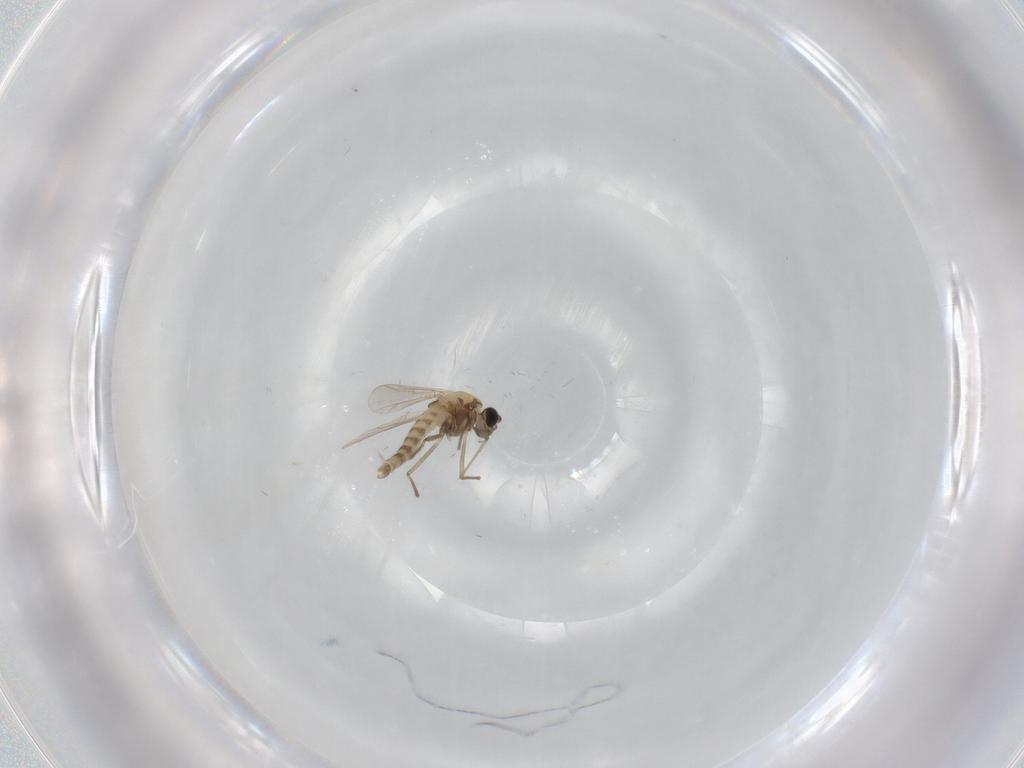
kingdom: Animalia
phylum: Arthropoda
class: Insecta
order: Diptera
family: Chironomidae
